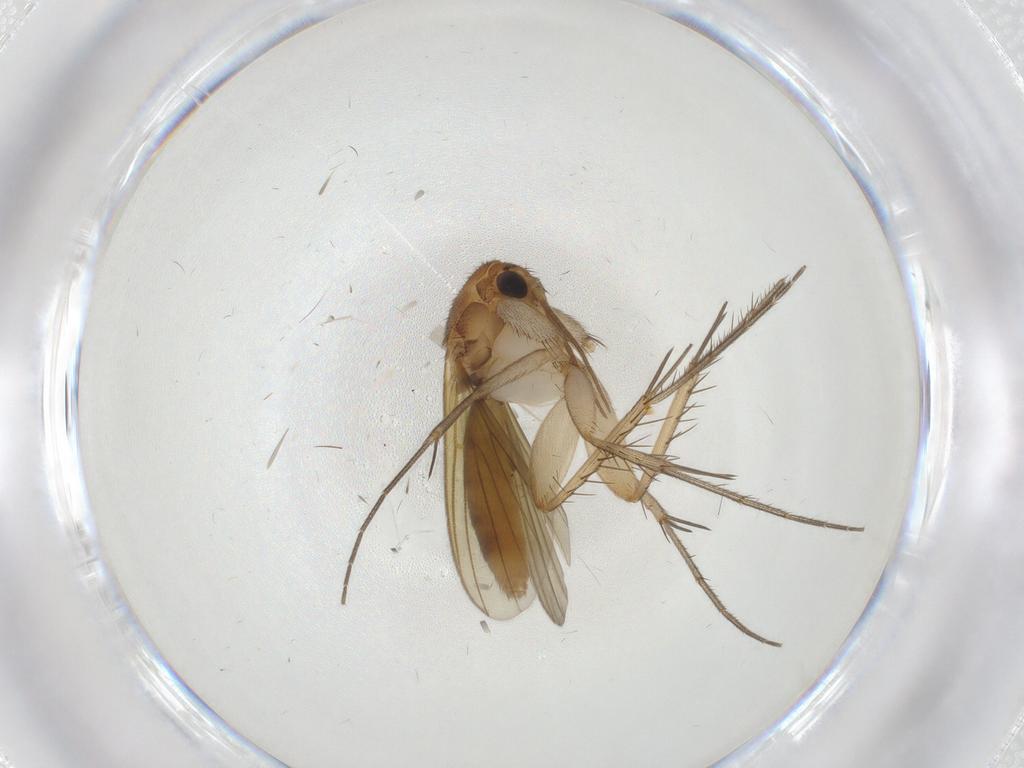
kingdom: Animalia
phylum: Arthropoda
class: Insecta
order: Diptera
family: Mycetophilidae
